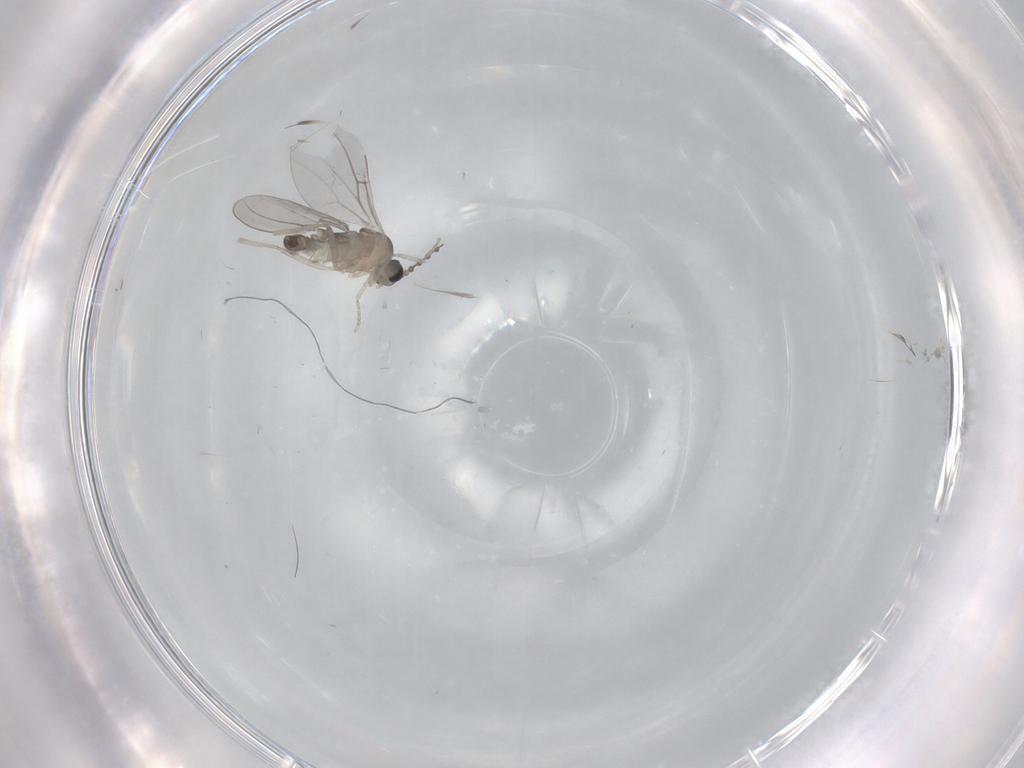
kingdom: Animalia
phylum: Arthropoda
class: Insecta
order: Diptera
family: Cecidomyiidae
